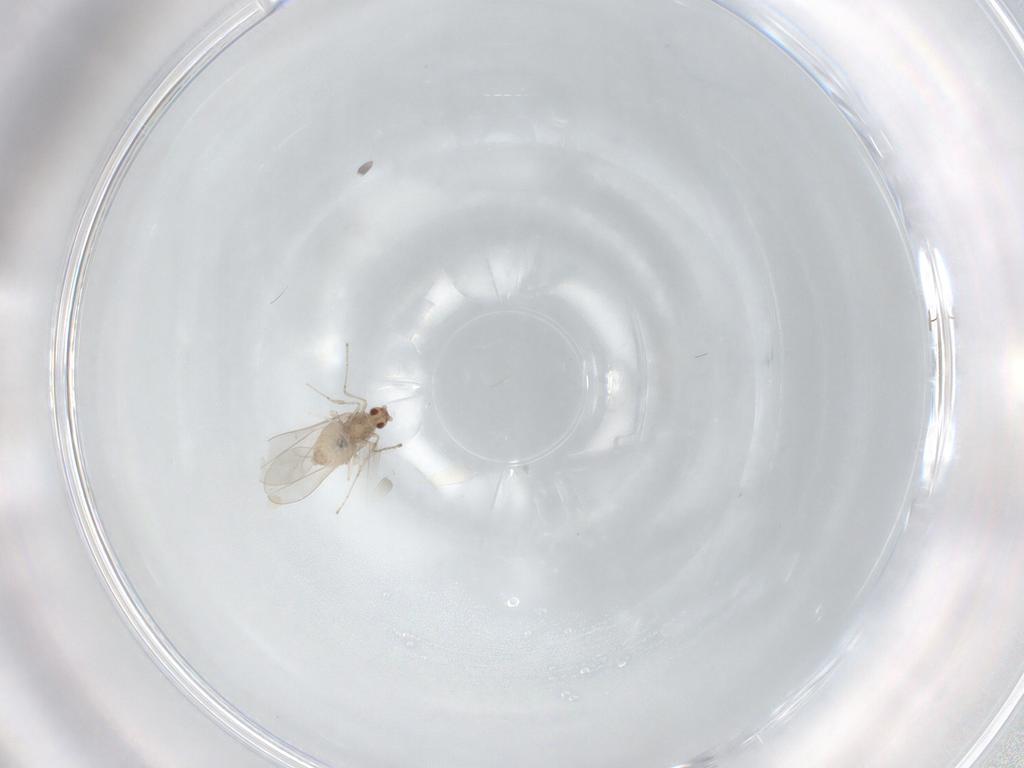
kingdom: Animalia
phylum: Arthropoda
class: Insecta
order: Diptera
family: Cecidomyiidae
